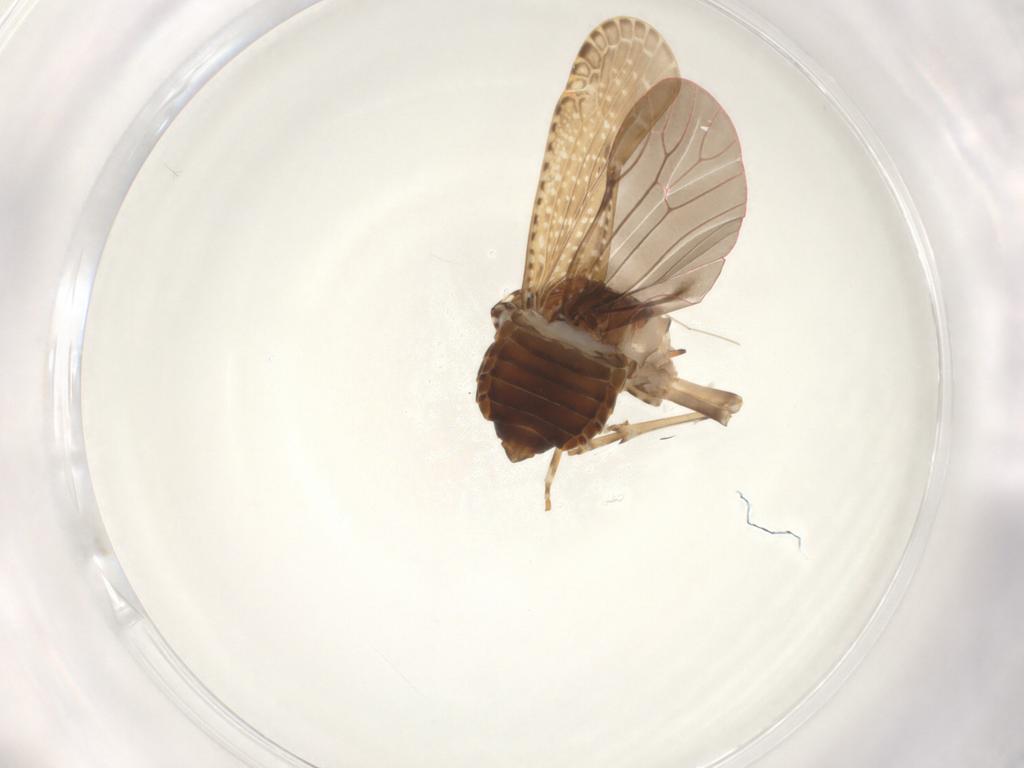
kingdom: Animalia
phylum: Arthropoda
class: Insecta
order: Hemiptera
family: Achilidae
